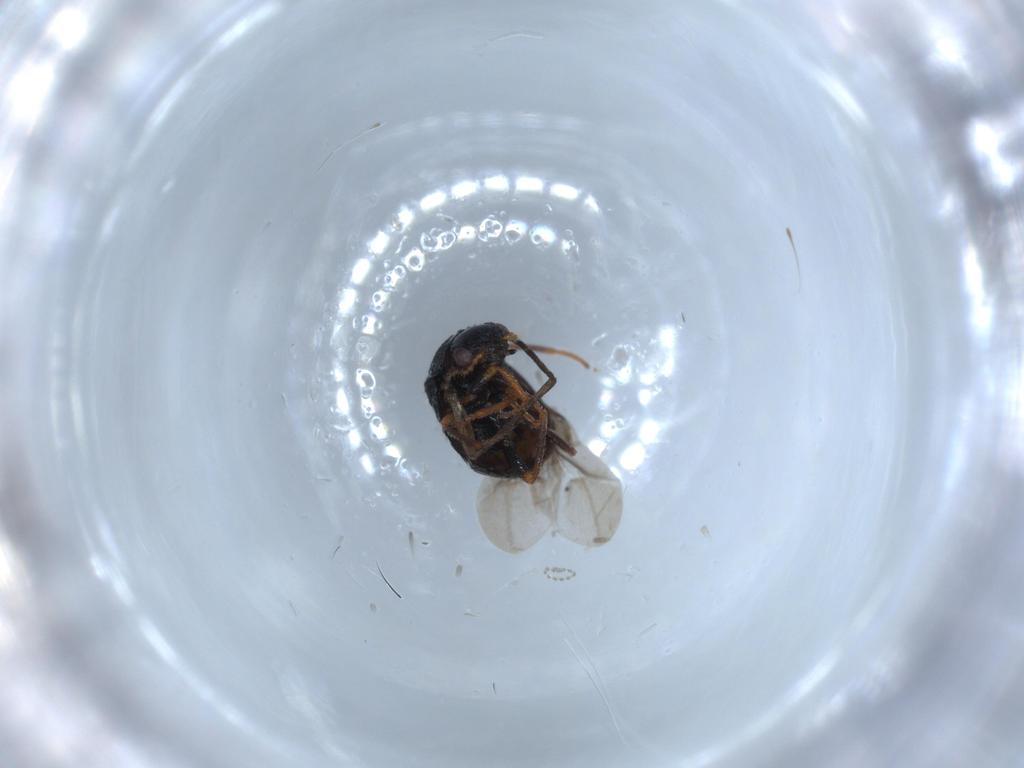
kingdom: Animalia
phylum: Arthropoda
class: Insecta
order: Coleoptera
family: Melyridae
